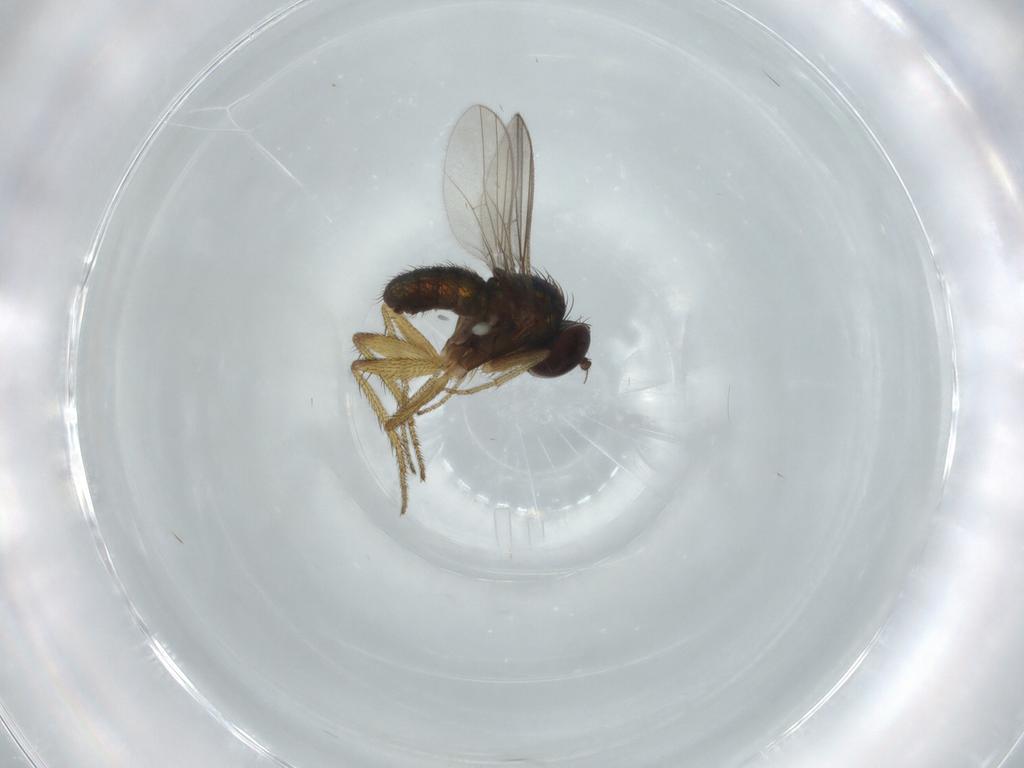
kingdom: Animalia
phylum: Arthropoda
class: Insecta
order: Diptera
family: Dolichopodidae
